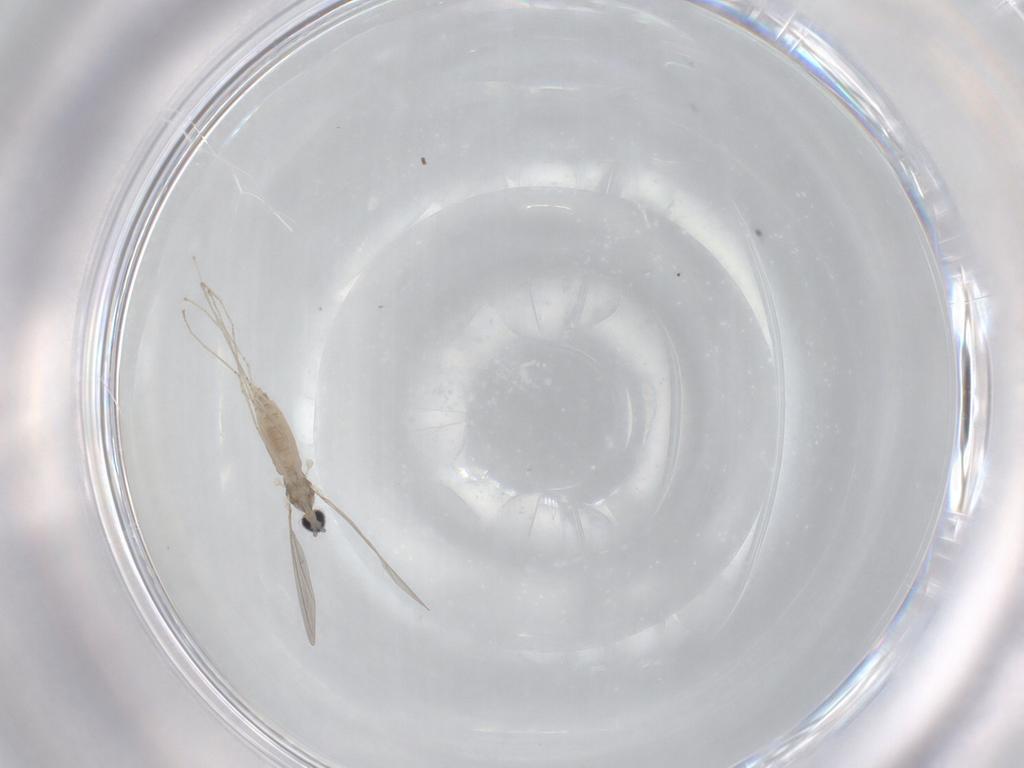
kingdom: Animalia
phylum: Arthropoda
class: Insecta
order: Diptera
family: Cecidomyiidae
